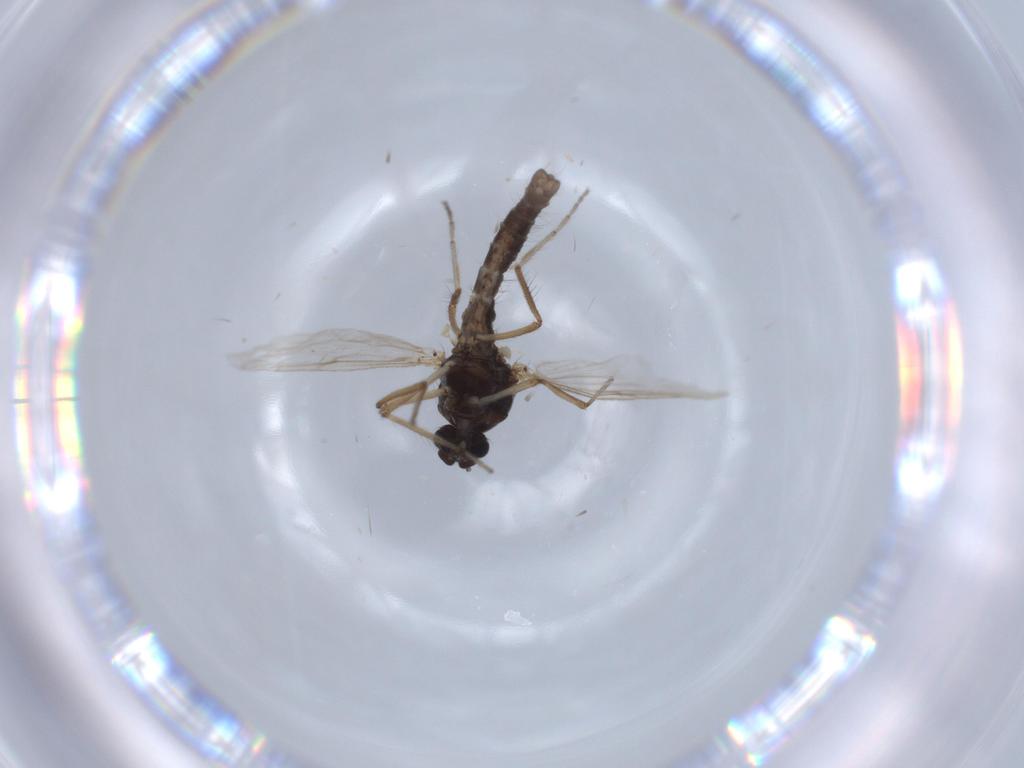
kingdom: Animalia
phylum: Arthropoda
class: Insecta
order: Diptera
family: Ceratopogonidae
